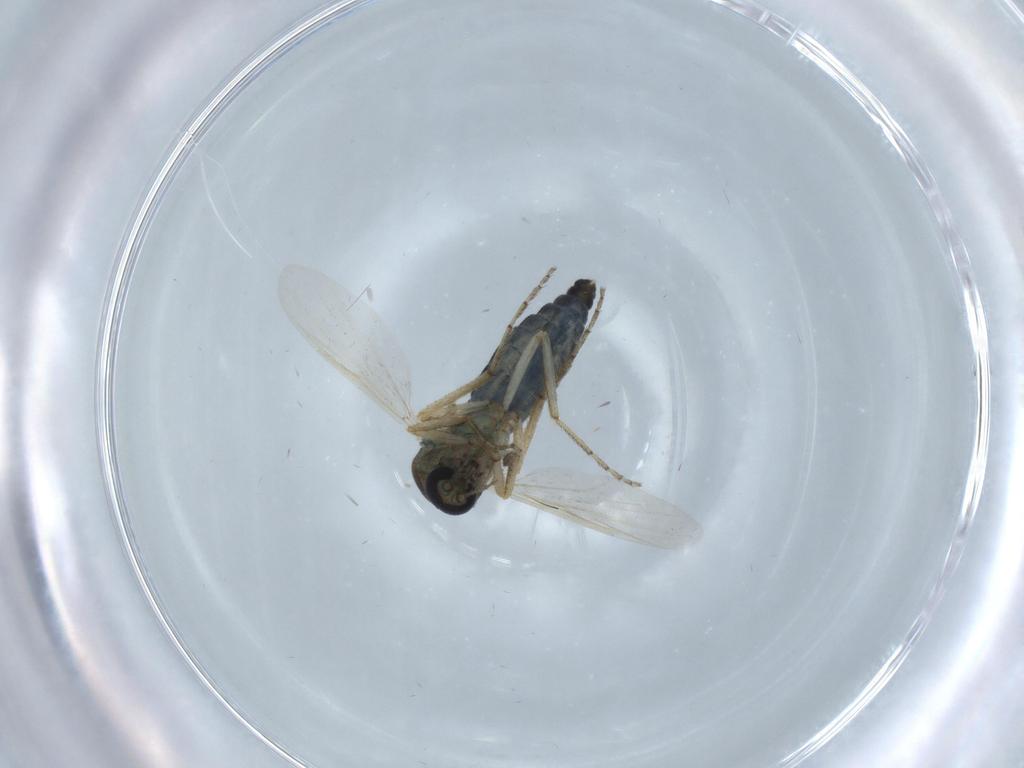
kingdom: Animalia
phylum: Arthropoda
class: Insecta
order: Diptera
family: Ceratopogonidae
